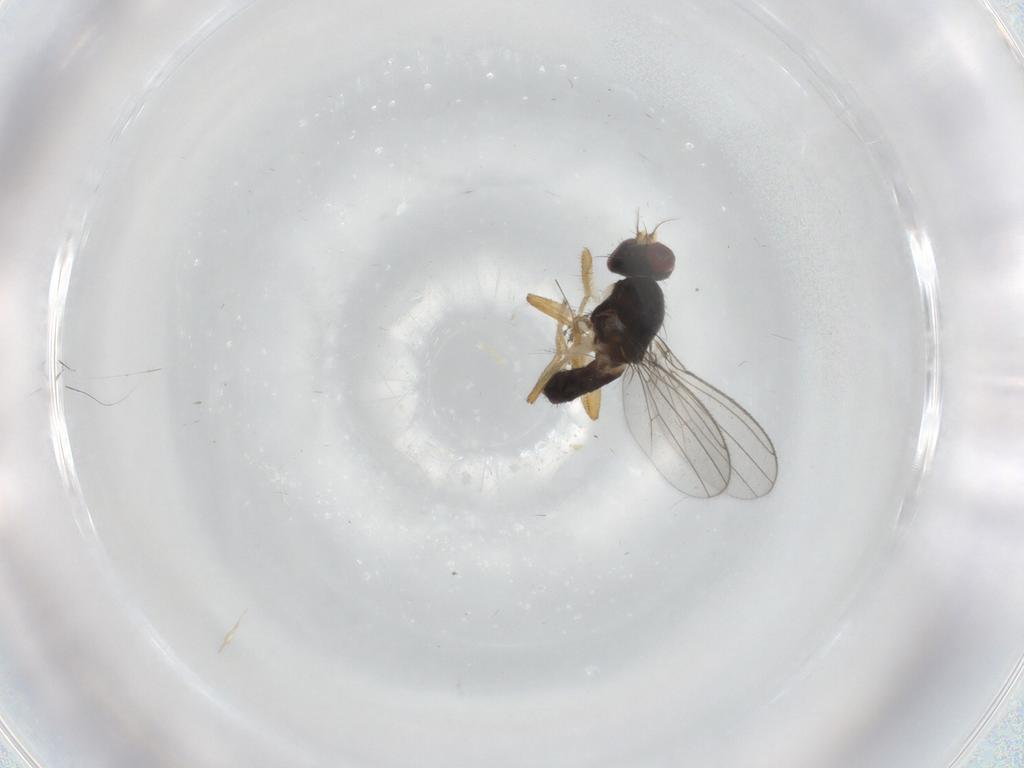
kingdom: Animalia
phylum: Arthropoda
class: Insecta
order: Diptera
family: Anthomyzidae
